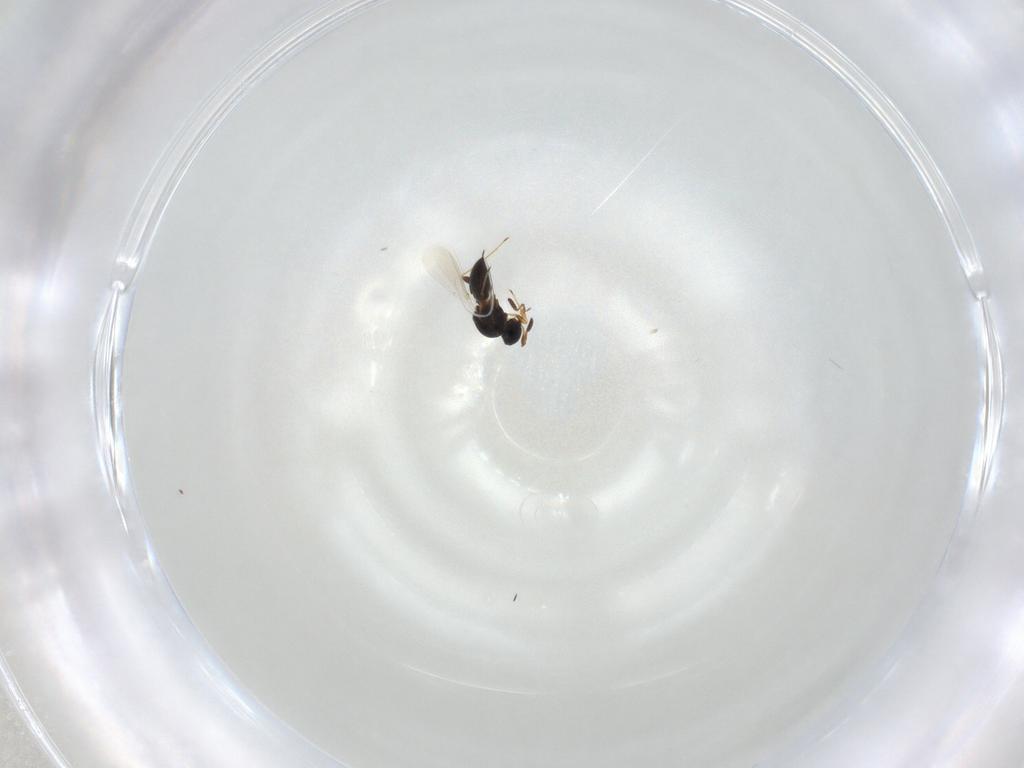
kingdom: Animalia
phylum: Arthropoda
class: Insecta
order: Hymenoptera
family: Platygastridae
